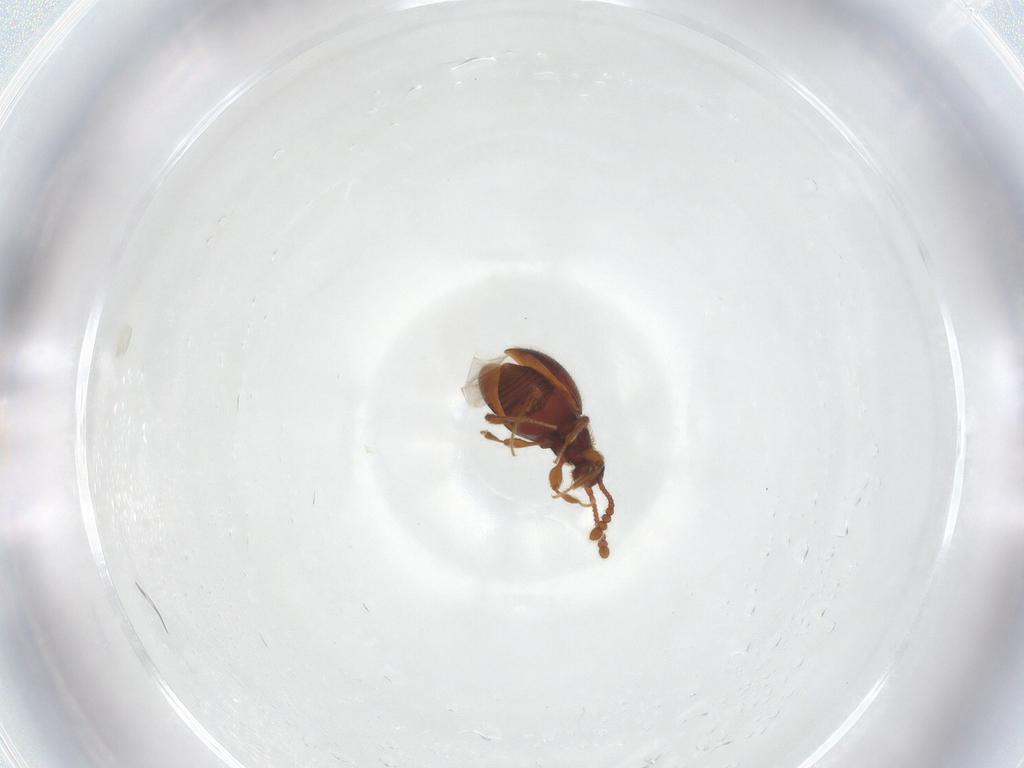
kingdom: Animalia
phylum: Arthropoda
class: Insecta
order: Coleoptera
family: Staphylinidae
